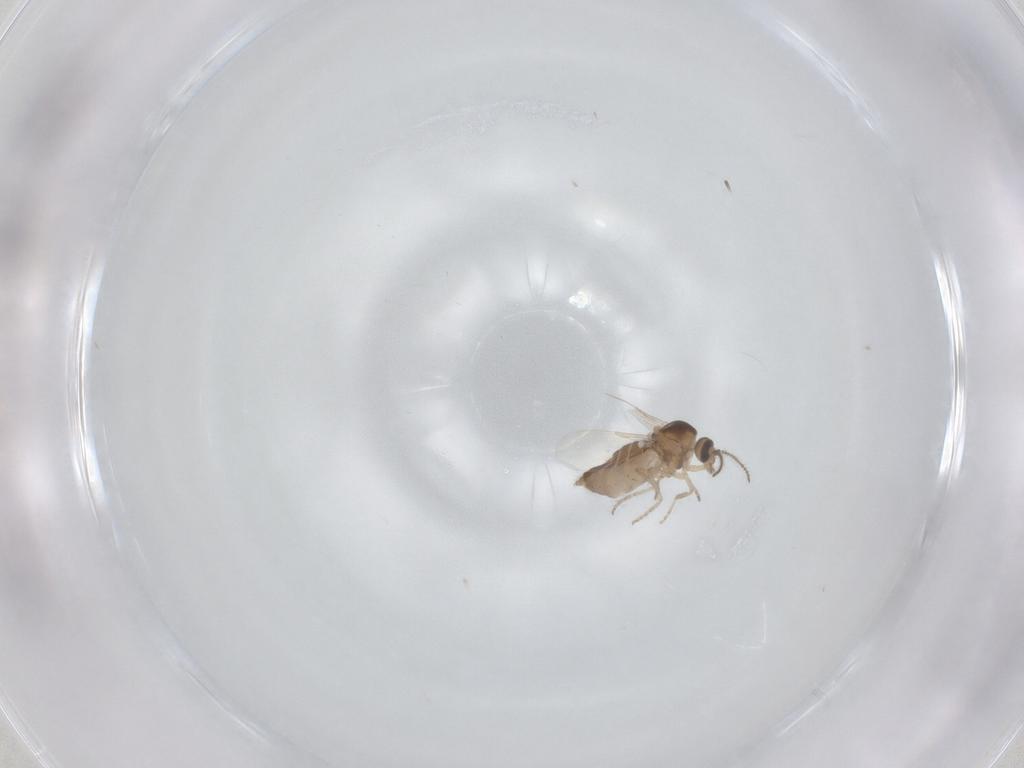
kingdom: Animalia
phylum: Arthropoda
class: Insecta
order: Diptera
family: Ceratopogonidae
